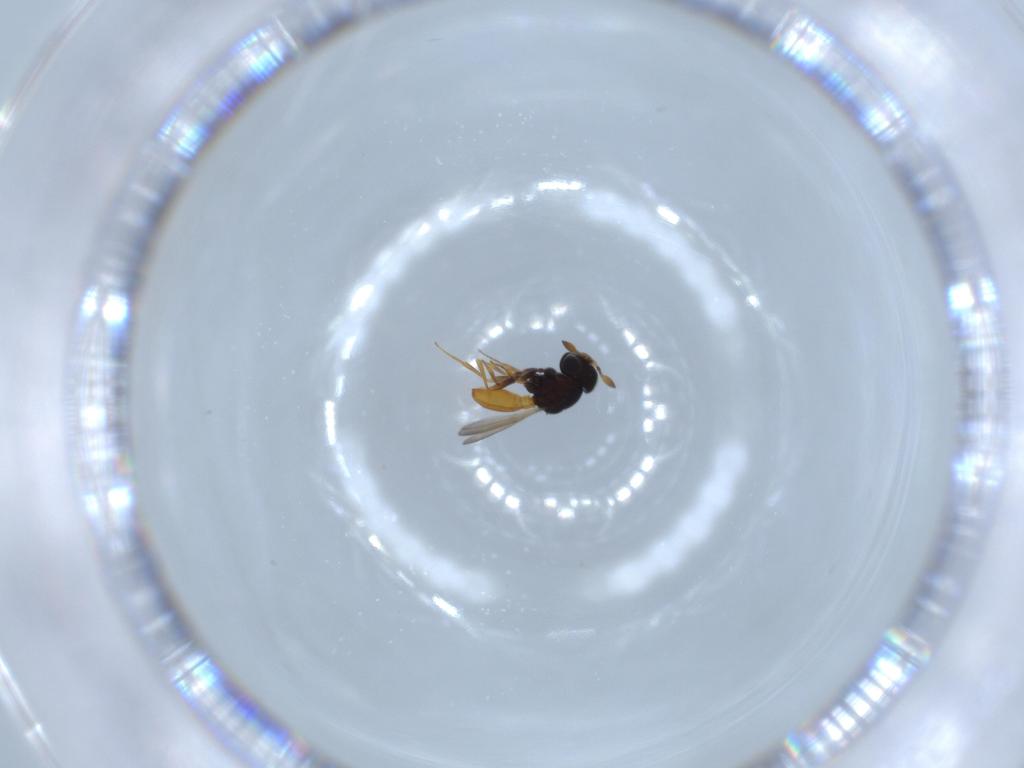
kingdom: Animalia
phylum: Arthropoda
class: Insecta
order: Hymenoptera
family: Scelionidae
